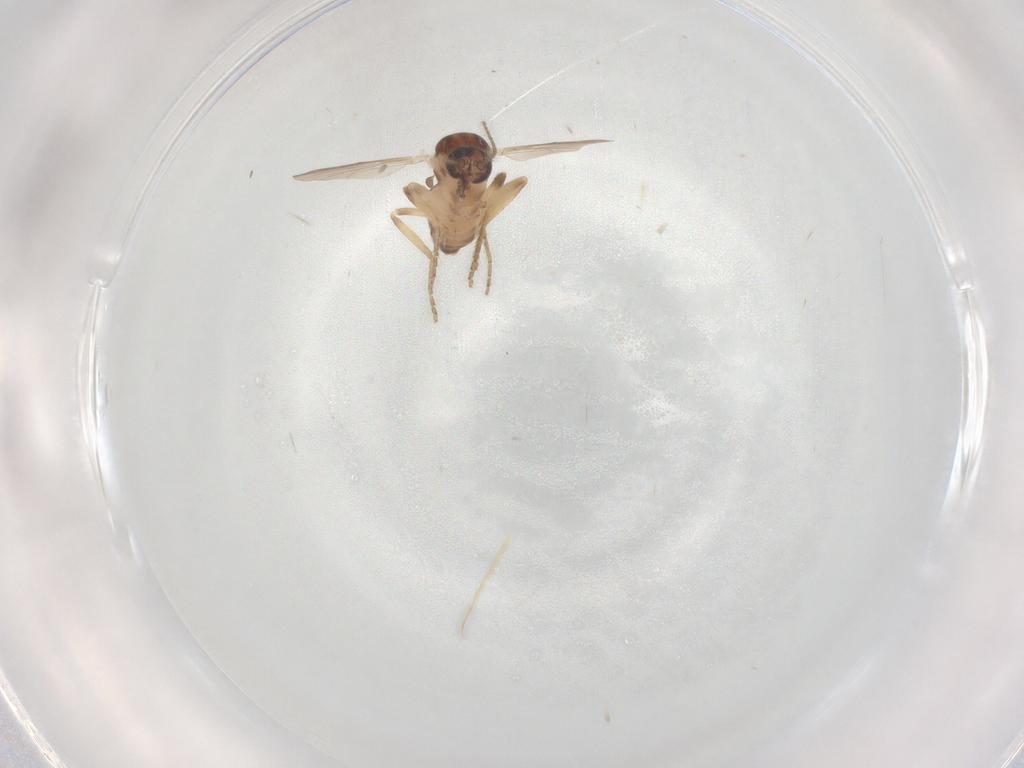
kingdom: Animalia
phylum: Arthropoda
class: Insecta
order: Diptera
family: Ceratopogonidae
